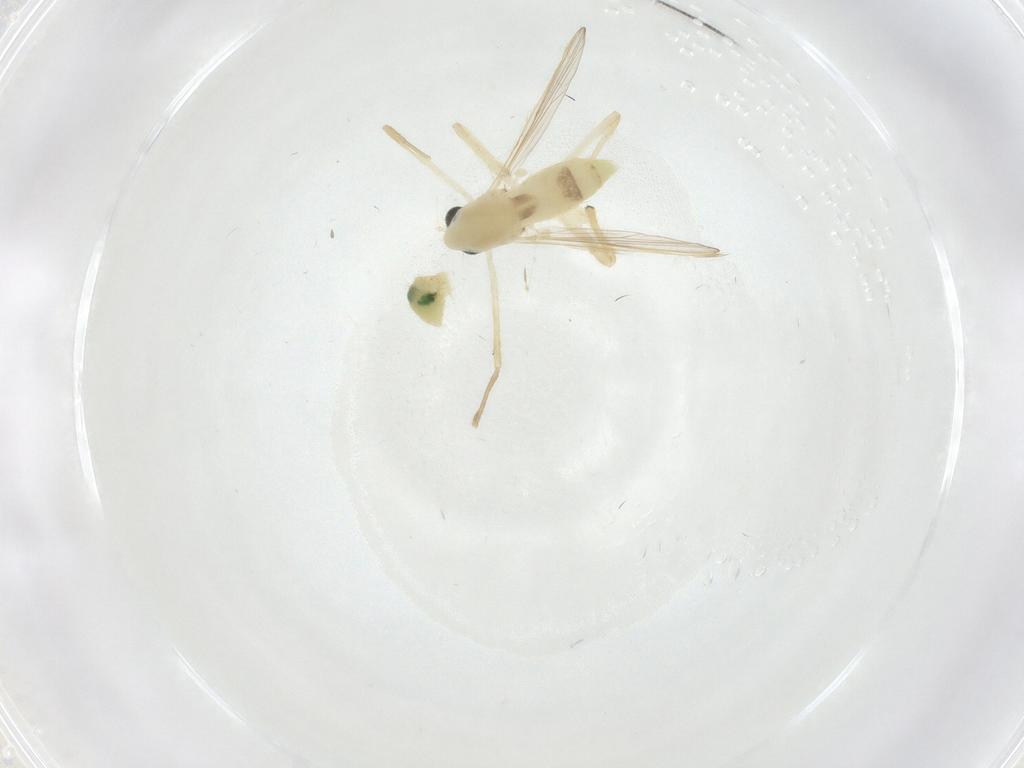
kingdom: Animalia
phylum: Arthropoda
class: Insecta
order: Diptera
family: Chironomidae
